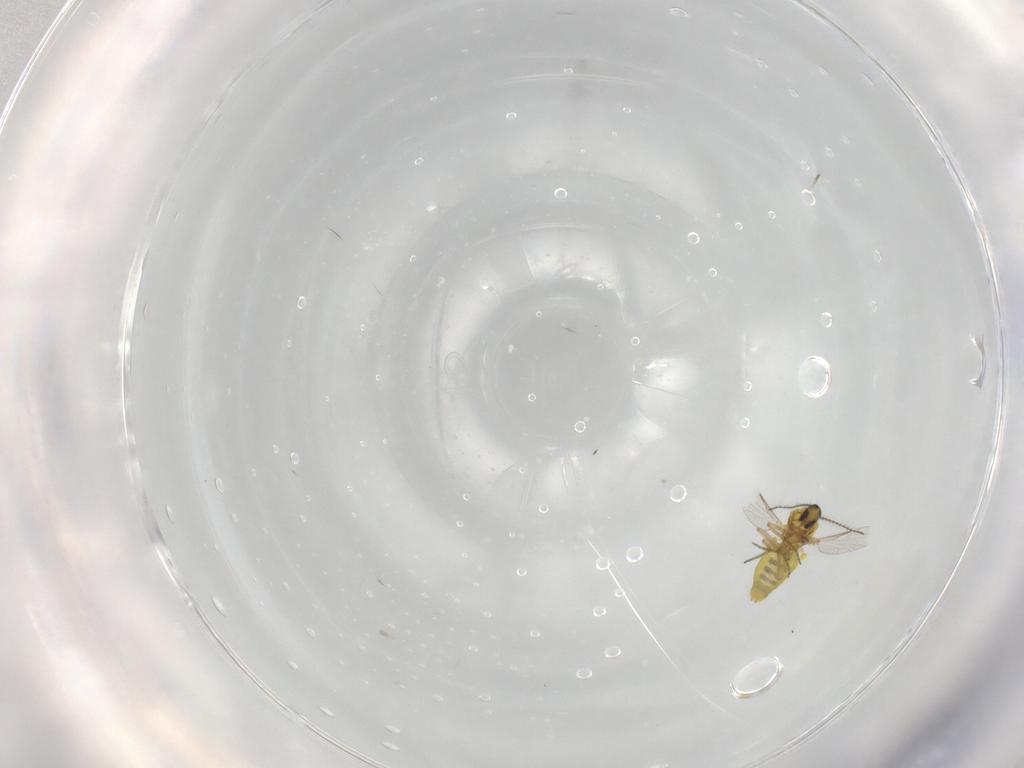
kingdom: Animalia
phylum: Arthropoda
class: Insecta
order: Diptera
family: Ceratopogonidae
